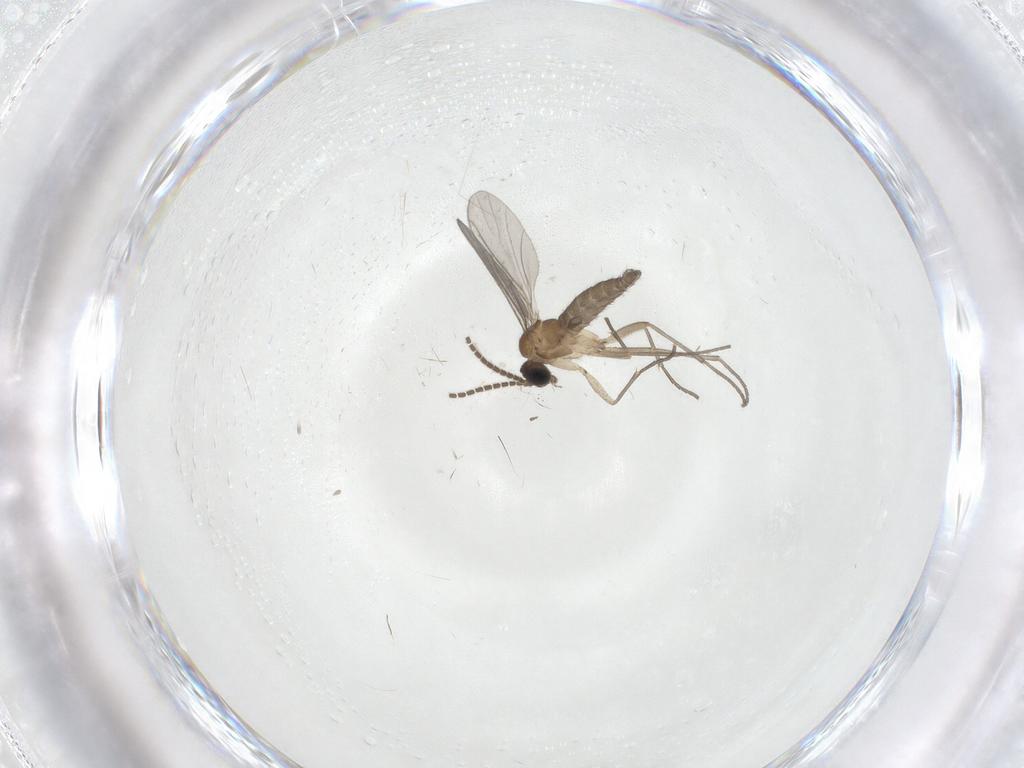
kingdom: Animalia
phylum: Arthropoda
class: Insecta
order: Diptera
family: Sciaridae
